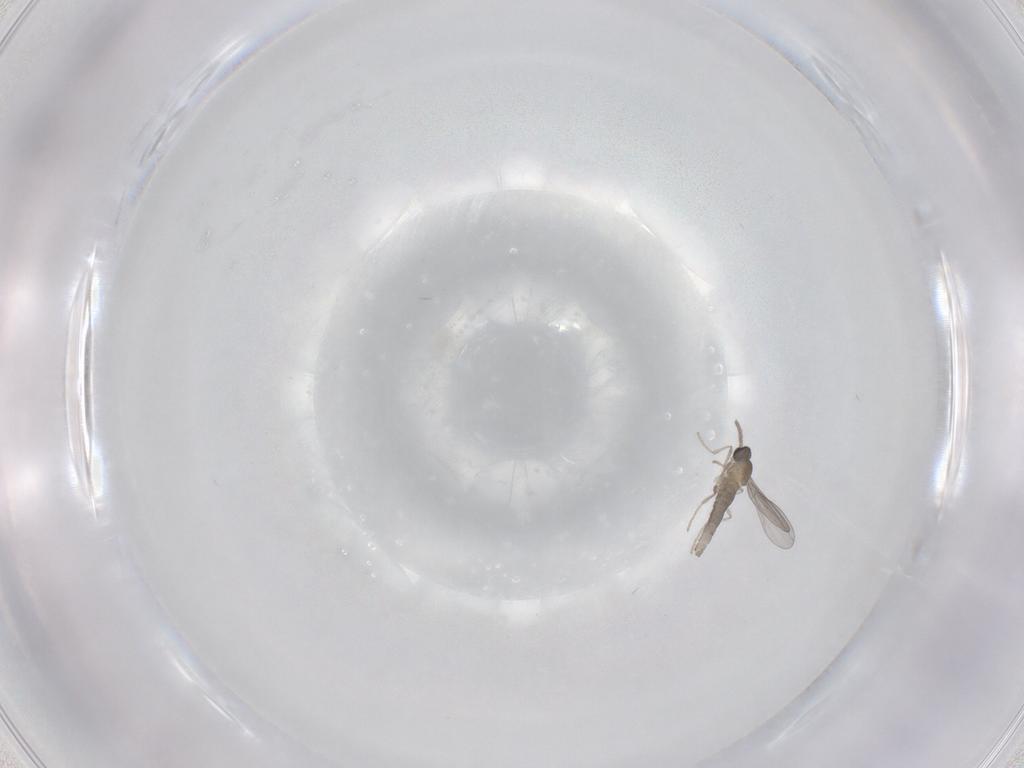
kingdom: Animalia
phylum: Arthropoda
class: Insecta
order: Diptera
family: Cecidomyiidae
